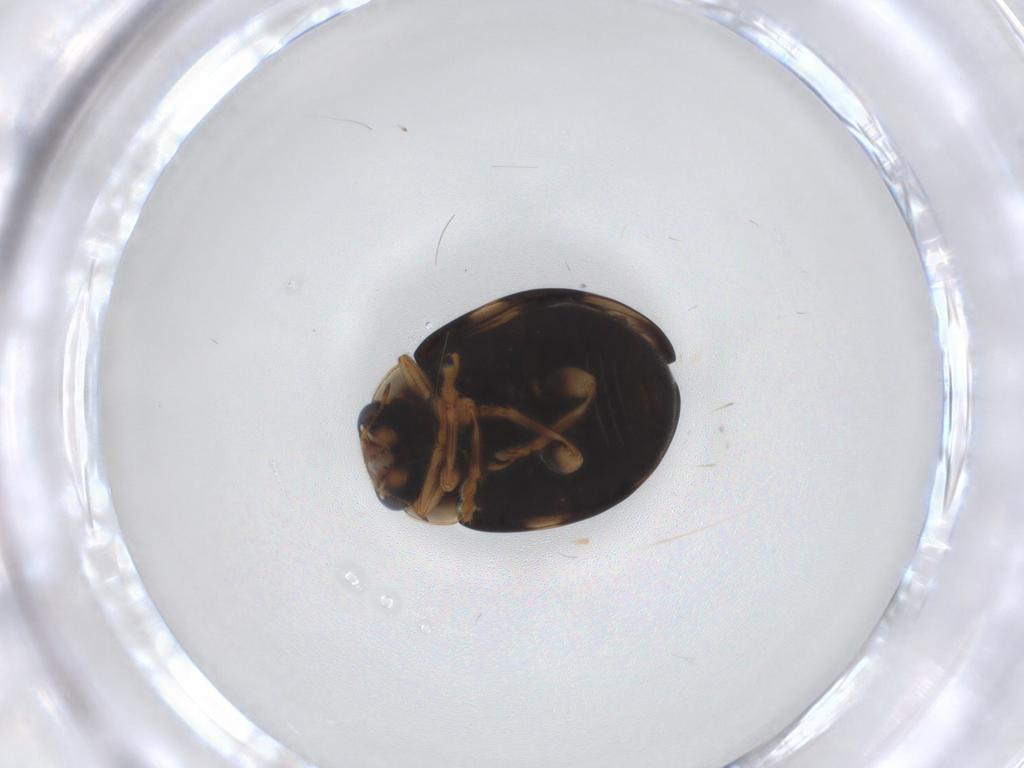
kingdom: Animalia
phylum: Arthropoda
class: Insecta
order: Coleoptera
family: Coccinellidae
